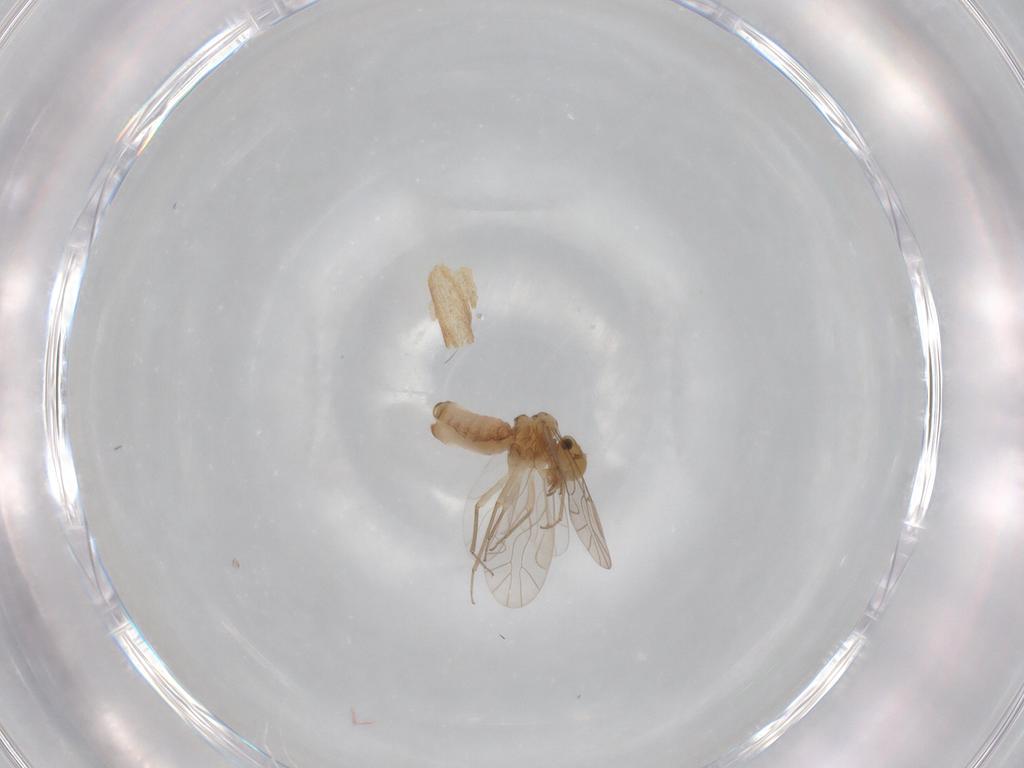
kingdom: Animalia
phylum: Arthropoda
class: Insecta
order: Psocodea
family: Lachesillidae
